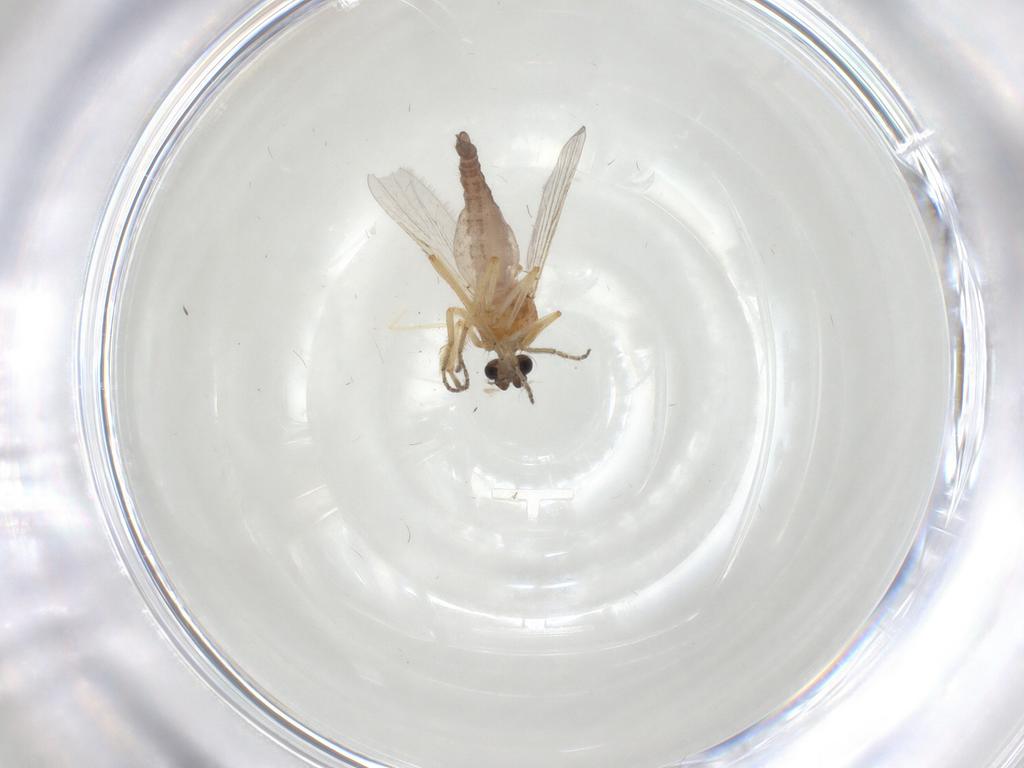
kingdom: Animalia
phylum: Arthropoda
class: Insecta
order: Diptera
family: Ceratopogonidae
